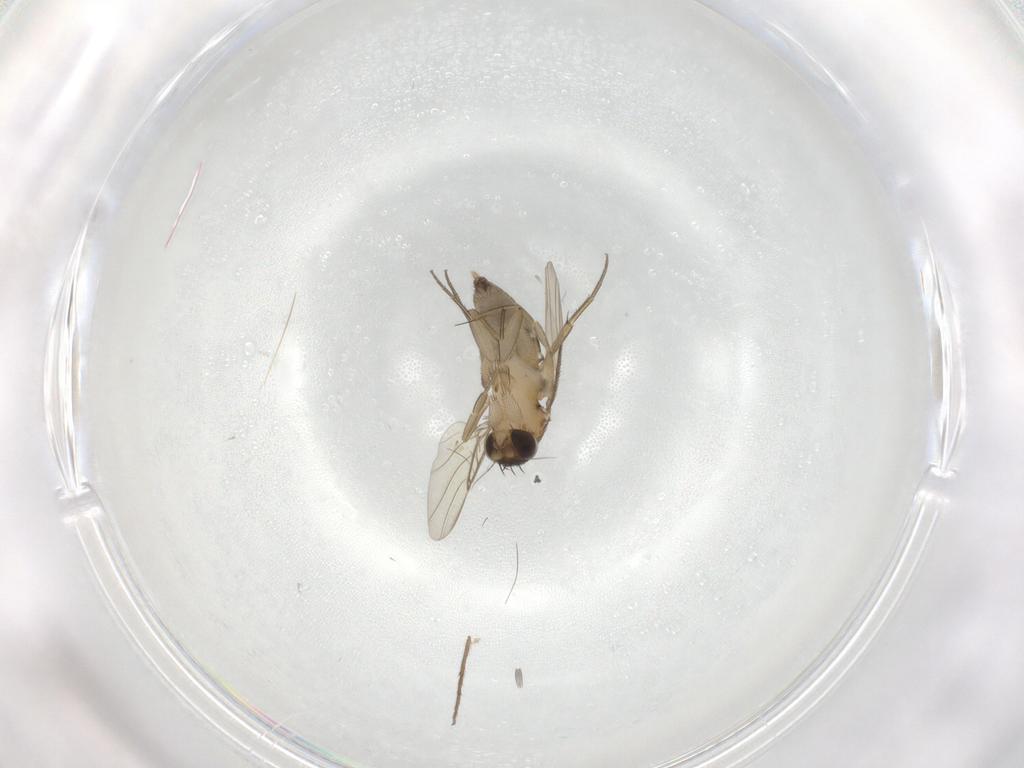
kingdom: Animalia
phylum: Arthropoda
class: Insecta
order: Diptera
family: Phoridae
